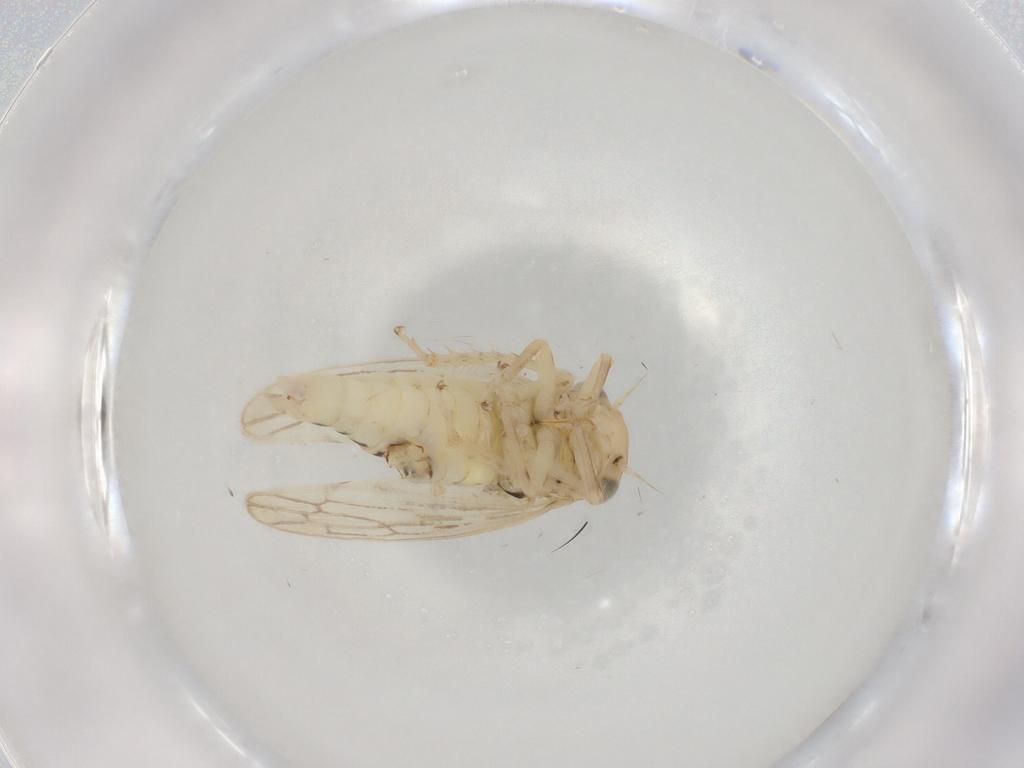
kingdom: Animalia
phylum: Arthropoda
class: Insecta
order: Hemiptera
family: Cicadellidae
